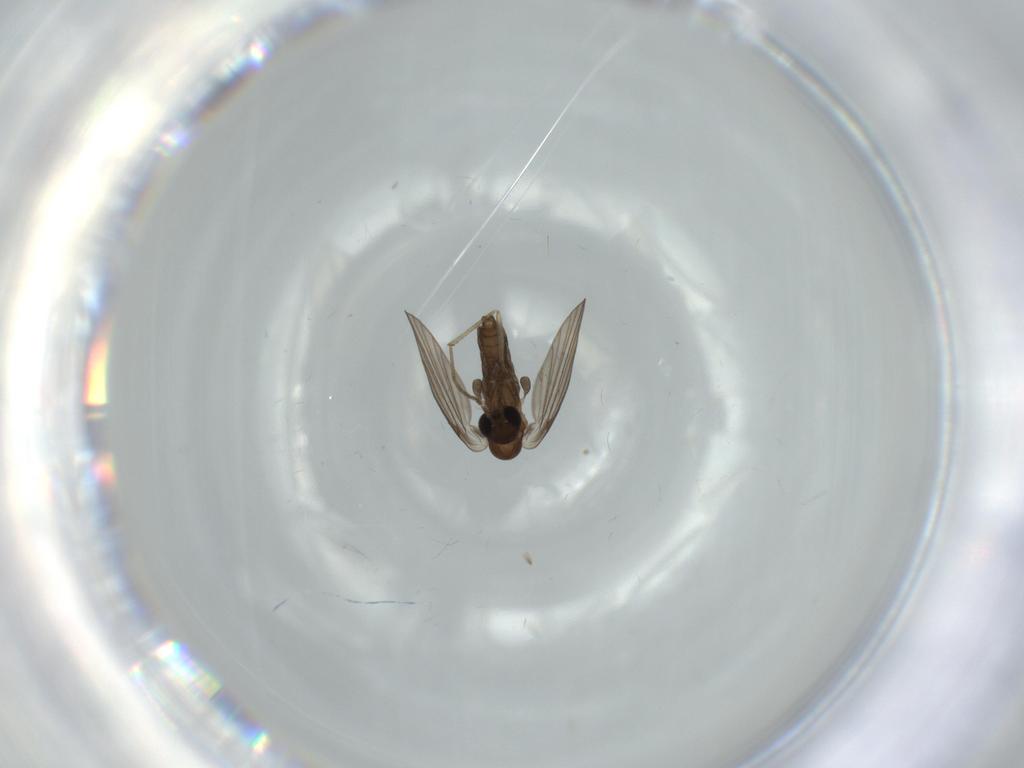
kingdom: Animalia
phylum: Arthropoda
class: Insecta
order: Diptera
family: Psychodidae
